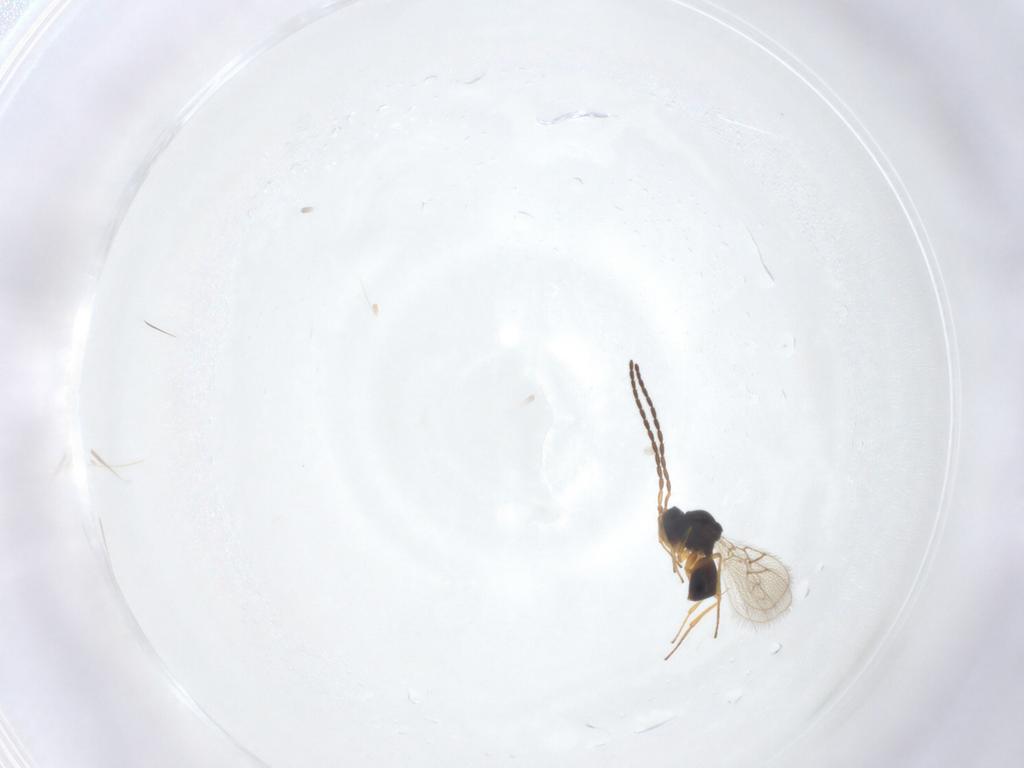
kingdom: Animalia
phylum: Arthropoda
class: Insecta
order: Hymenoptera
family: Figitidae
